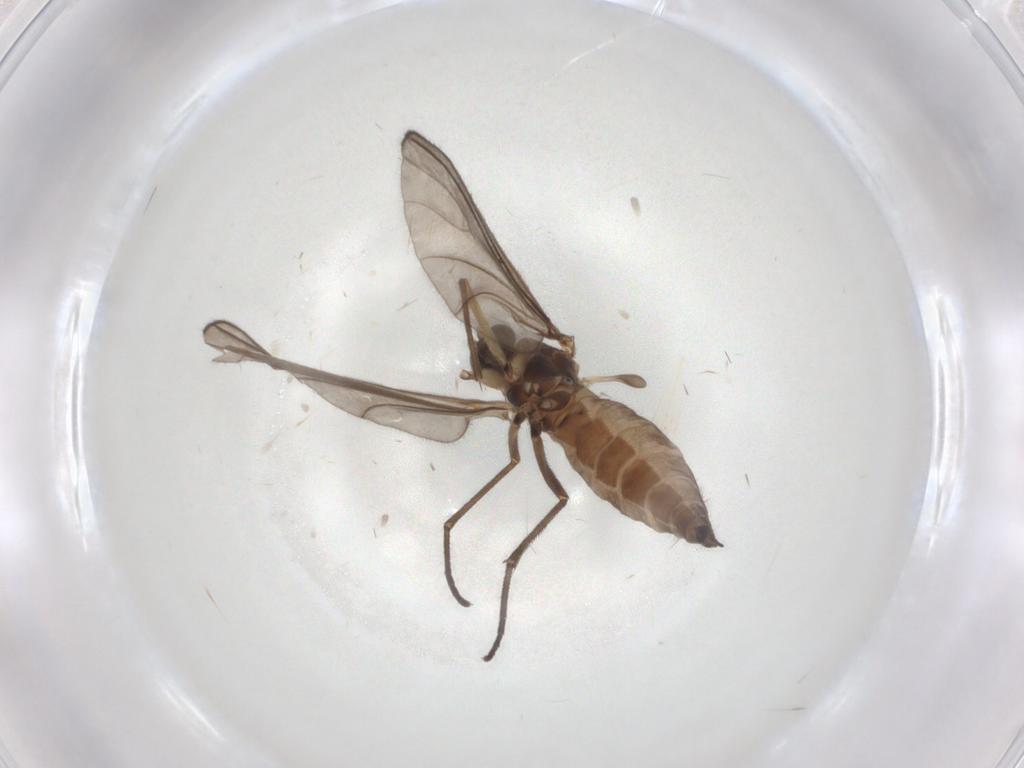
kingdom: Animalia
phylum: Arthropoda
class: Insecta
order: Diptera
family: Sciaridae
